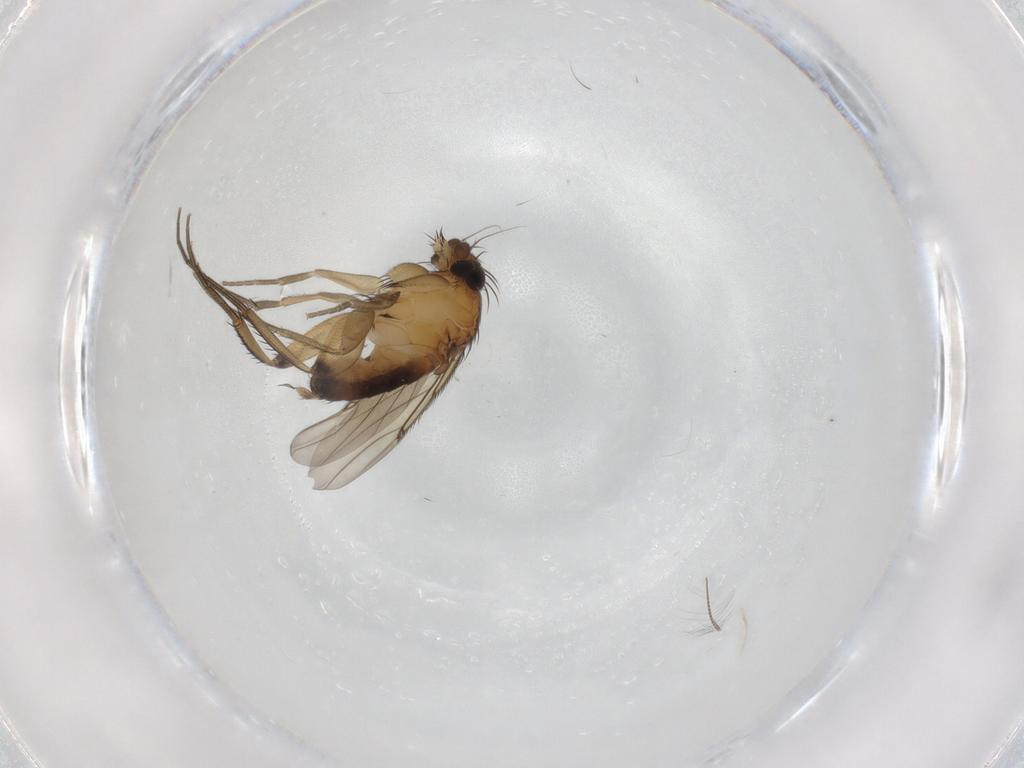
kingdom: Animalia
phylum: Arthropoda
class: Insecta
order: Diptera
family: Phoridae
